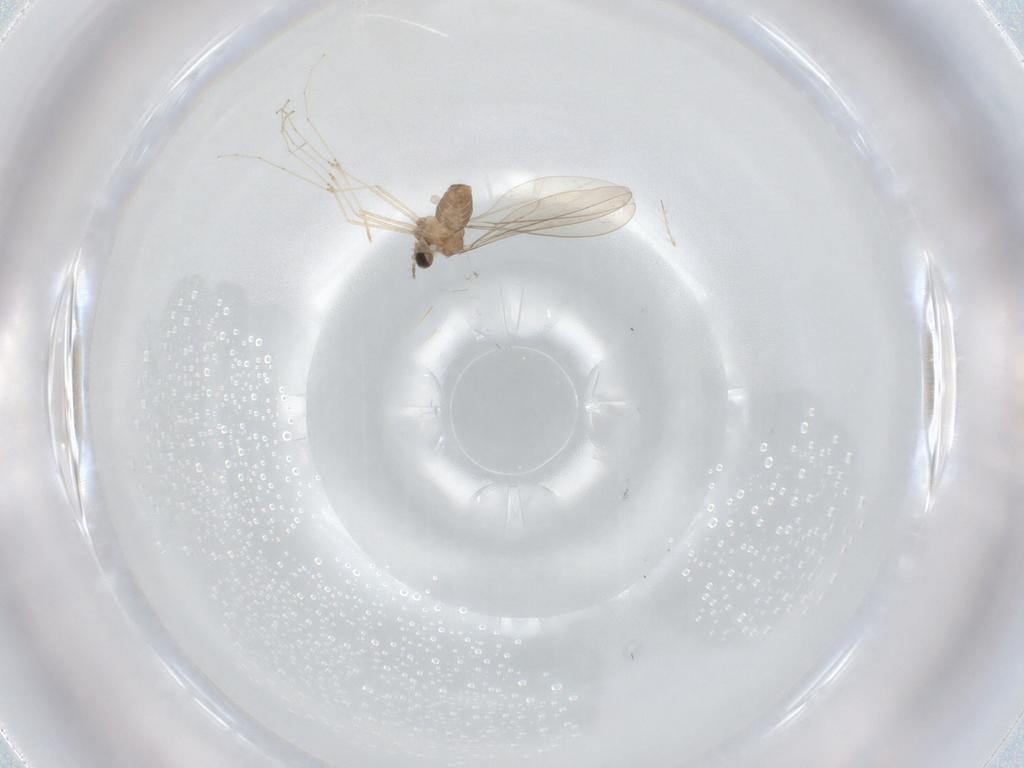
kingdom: Animalia
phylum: Arthropoda
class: Insecta
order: Diptera
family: Cecidomyiidae
